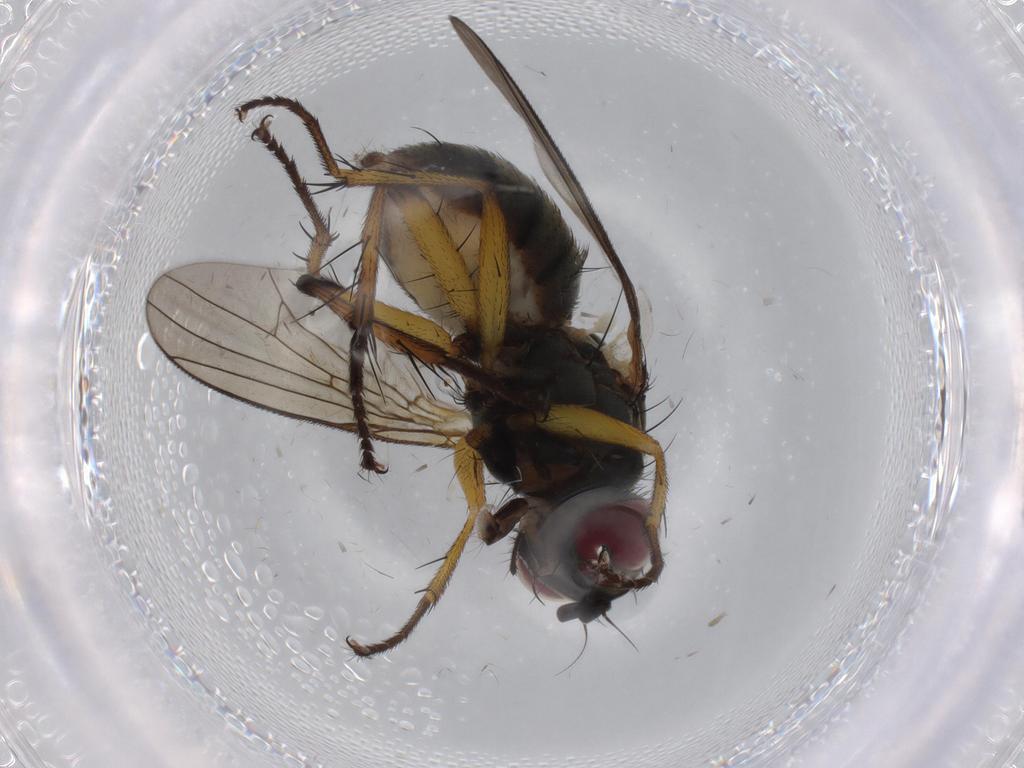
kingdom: Animalia
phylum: Arthropoda
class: Insecta
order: Diptera
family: Muscidae
